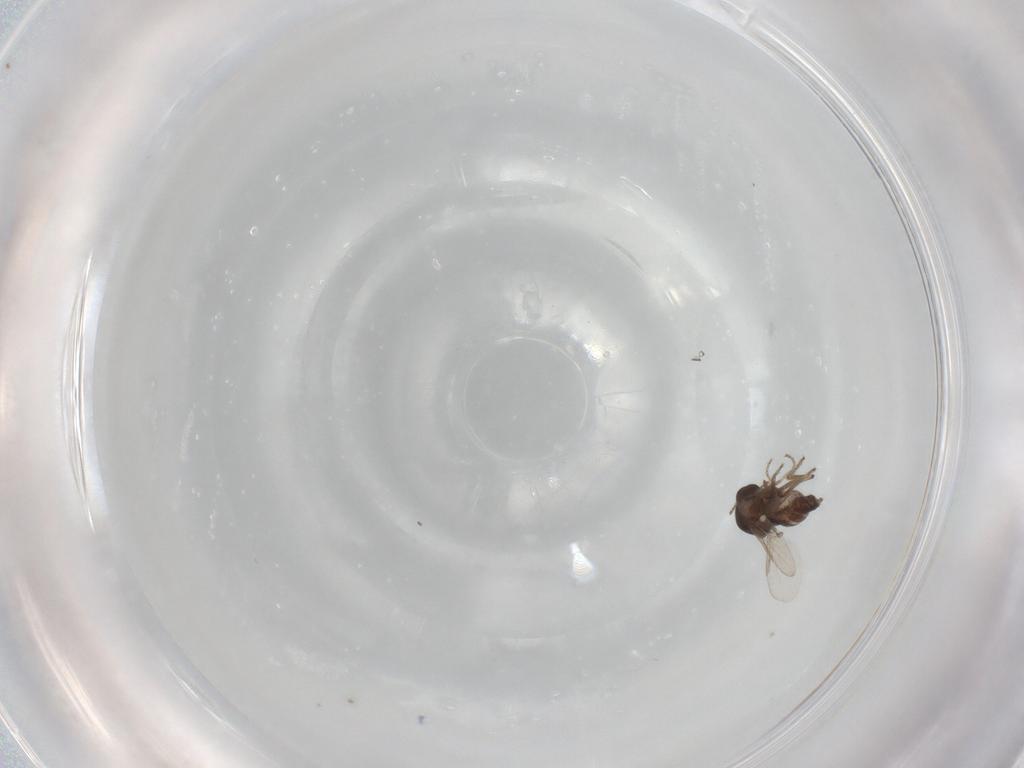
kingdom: Animalia
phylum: Arthropoda
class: Insecta
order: Diptera
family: Ceratopogonidae
